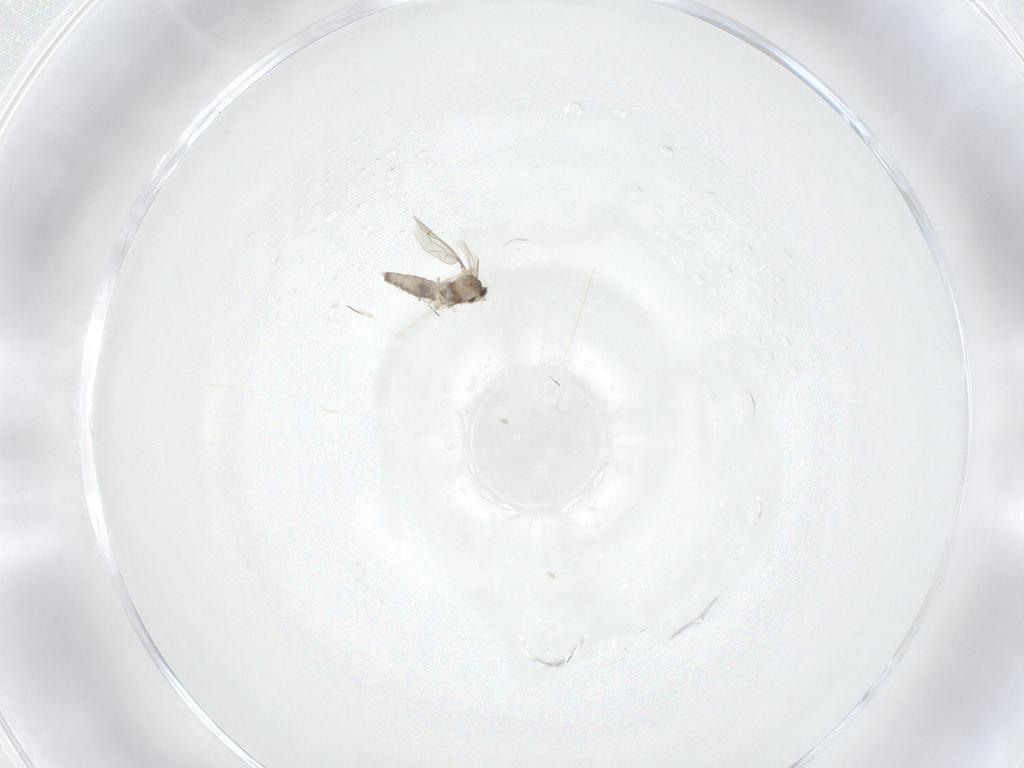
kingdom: Animalia
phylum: Arthropoda
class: Insecta
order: Diptera
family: Cecidomyiidae
